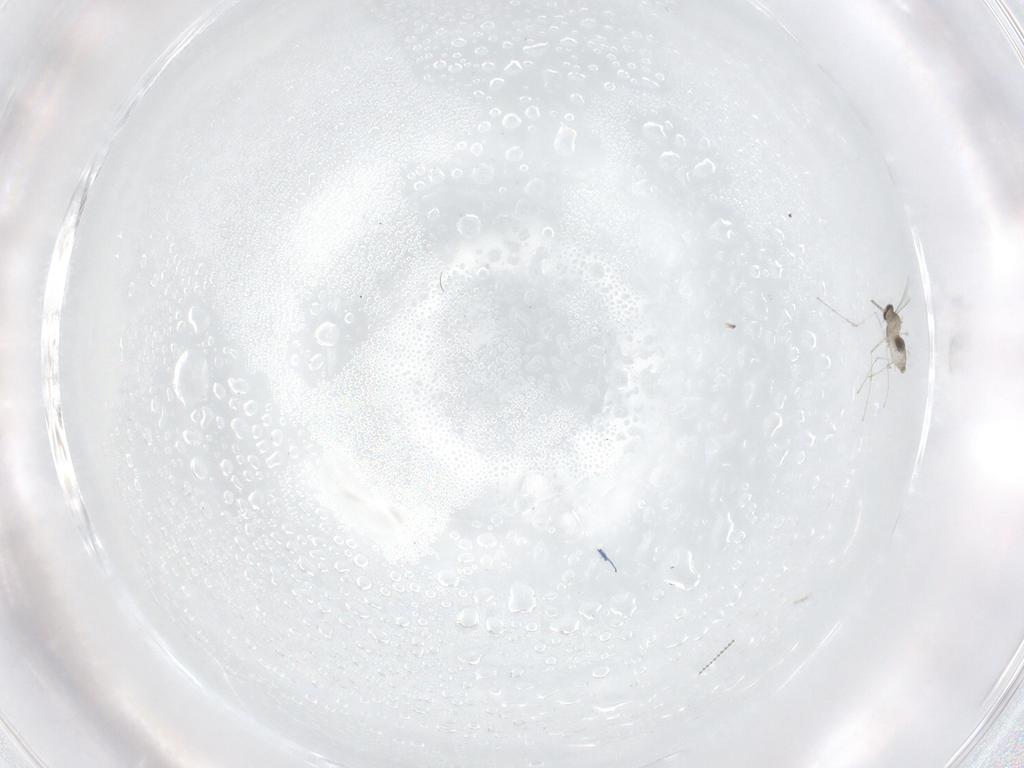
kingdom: Animalia
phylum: Arthropoda
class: Insecta
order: Diptera
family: Cecidomyiidae
